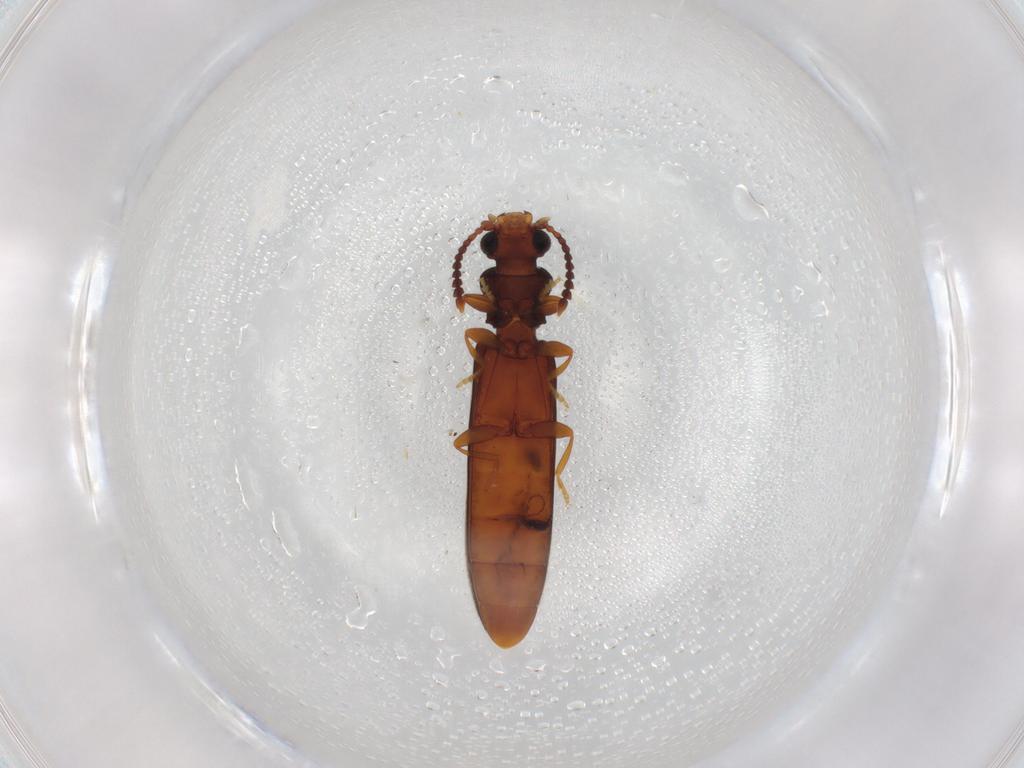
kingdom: Animalia
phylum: Arthropoda
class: Insecta
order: Coleoptera
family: Mycteridae
